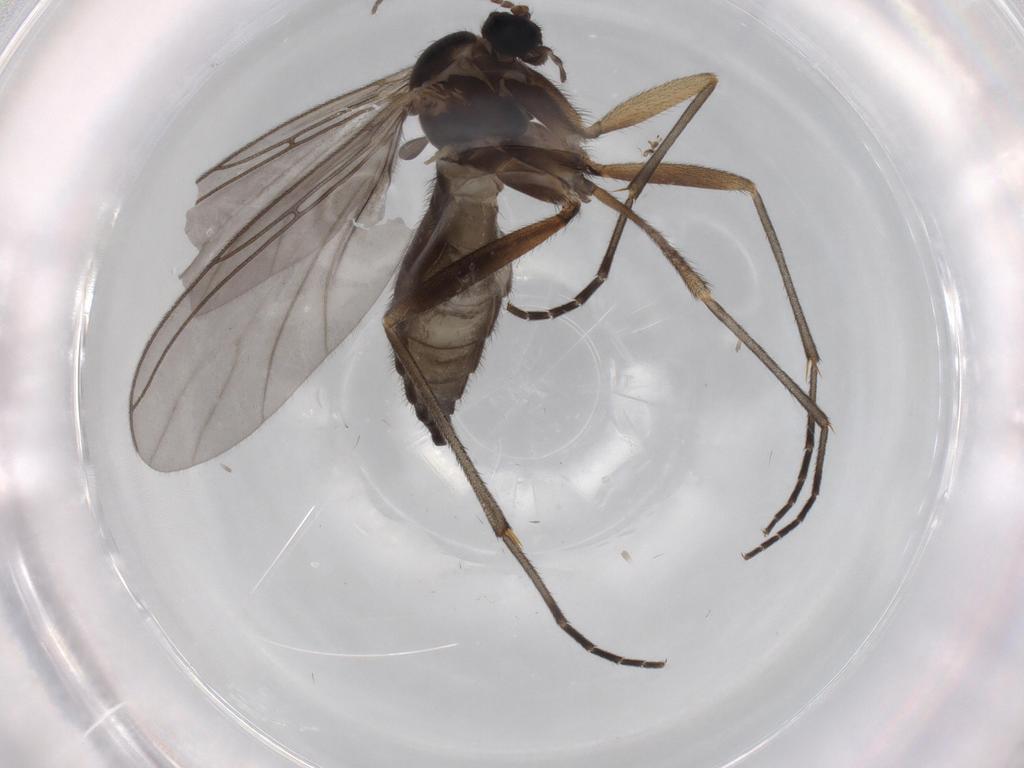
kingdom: Animalia
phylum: Arthropoda
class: Insecta
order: Diptera
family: Sciaridae
